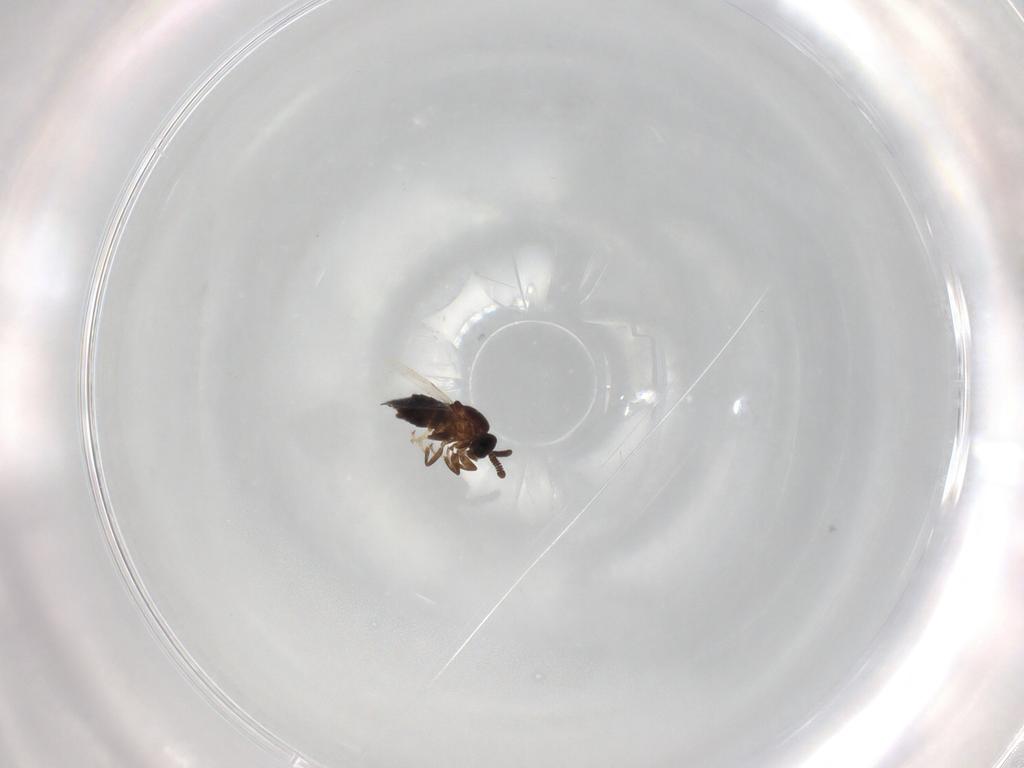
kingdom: Animalia
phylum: Arthropoda
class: Insecta
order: Diptera
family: Scatopsidae
